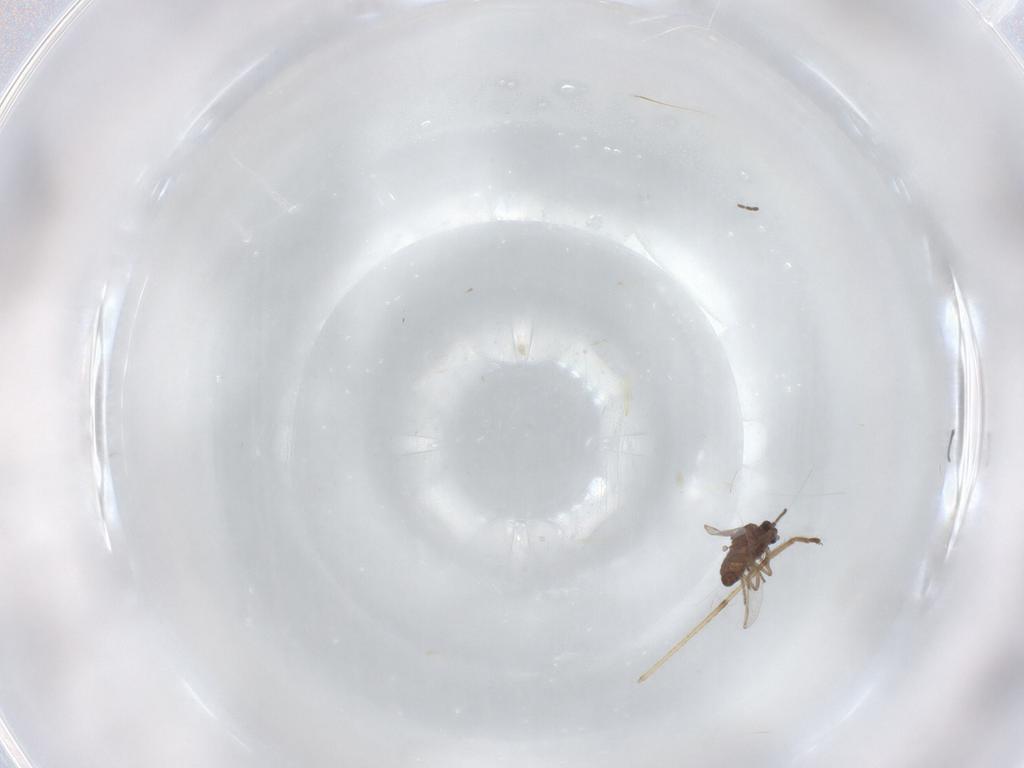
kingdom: Animalia
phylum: Arthropoda
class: Insecta
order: Diptera
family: Ceratopogonidae
